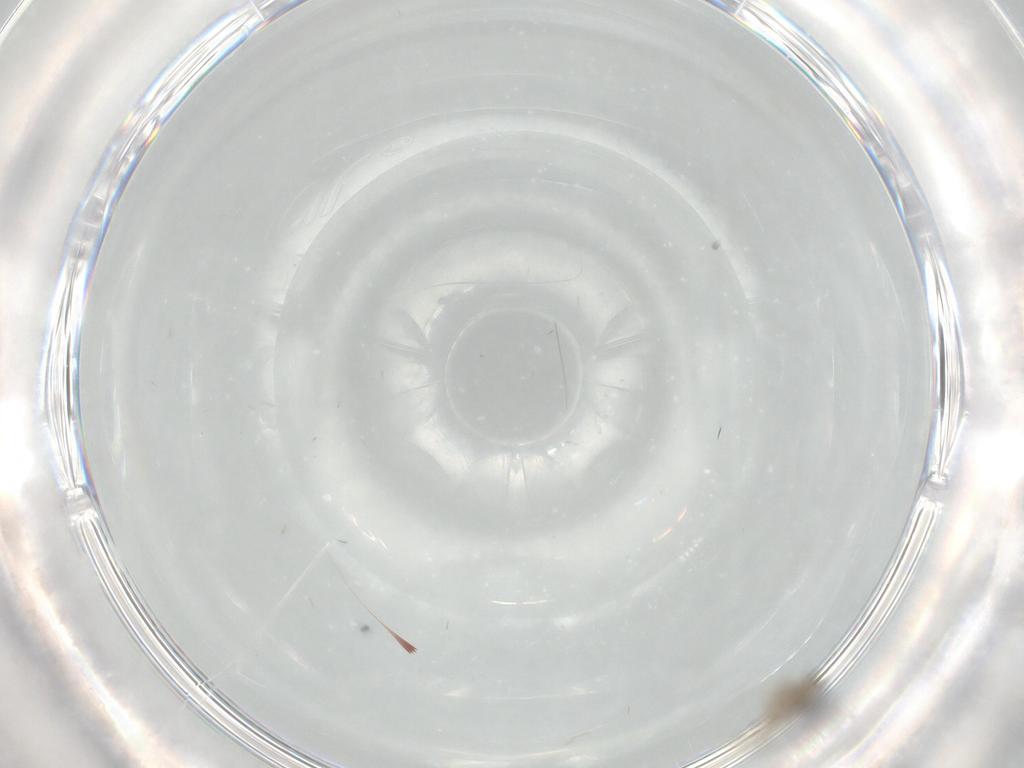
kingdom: Animalia
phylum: Arthropoda
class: Insecta
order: Diptera
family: Cecidomyiidae
